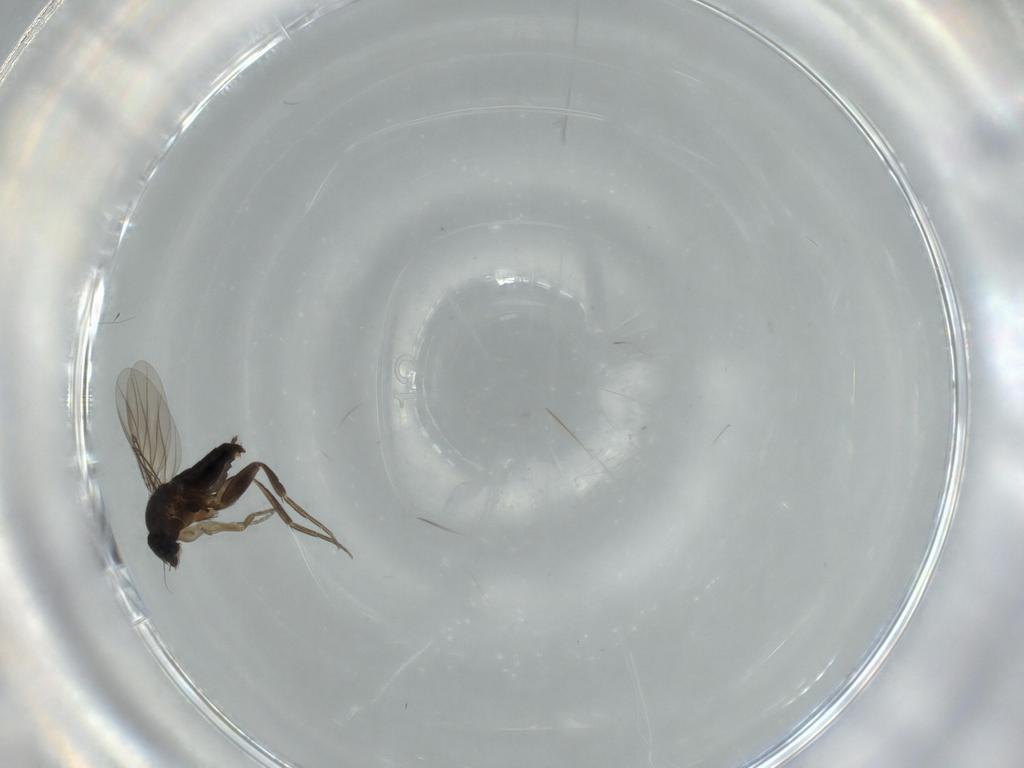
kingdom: Animalia
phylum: Arthropoda
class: Insecta
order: Diptera
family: Phoridae
